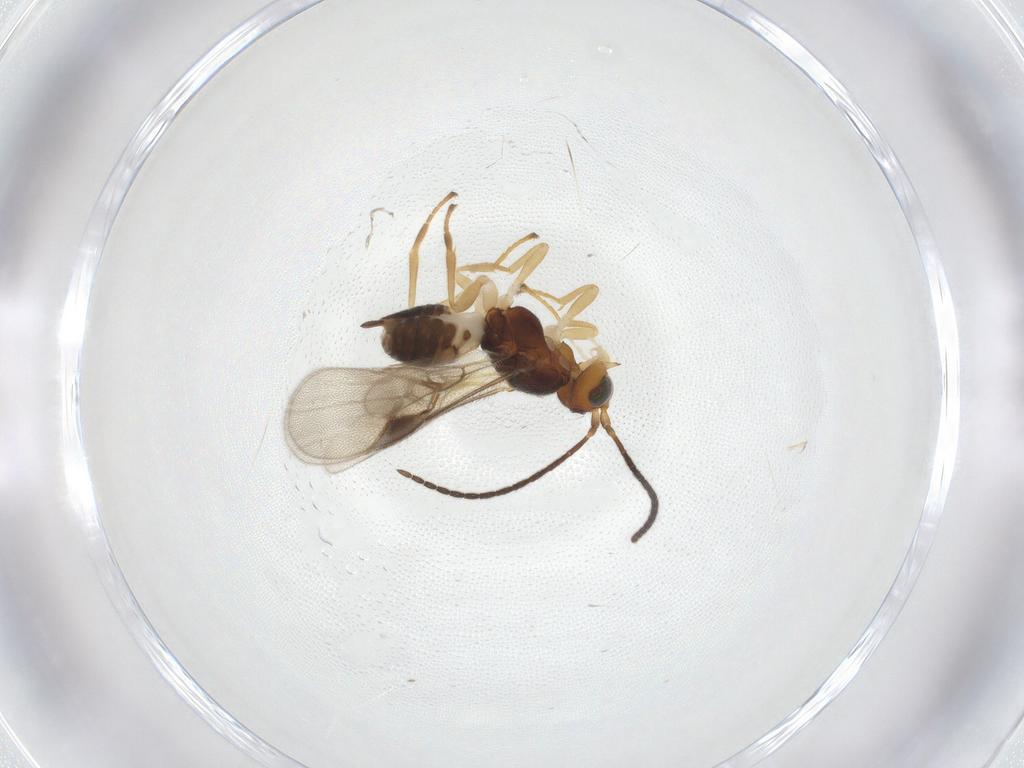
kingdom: Animalia
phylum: Arthropoda
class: Insecta
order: Hymenoptera
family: Braconidae
